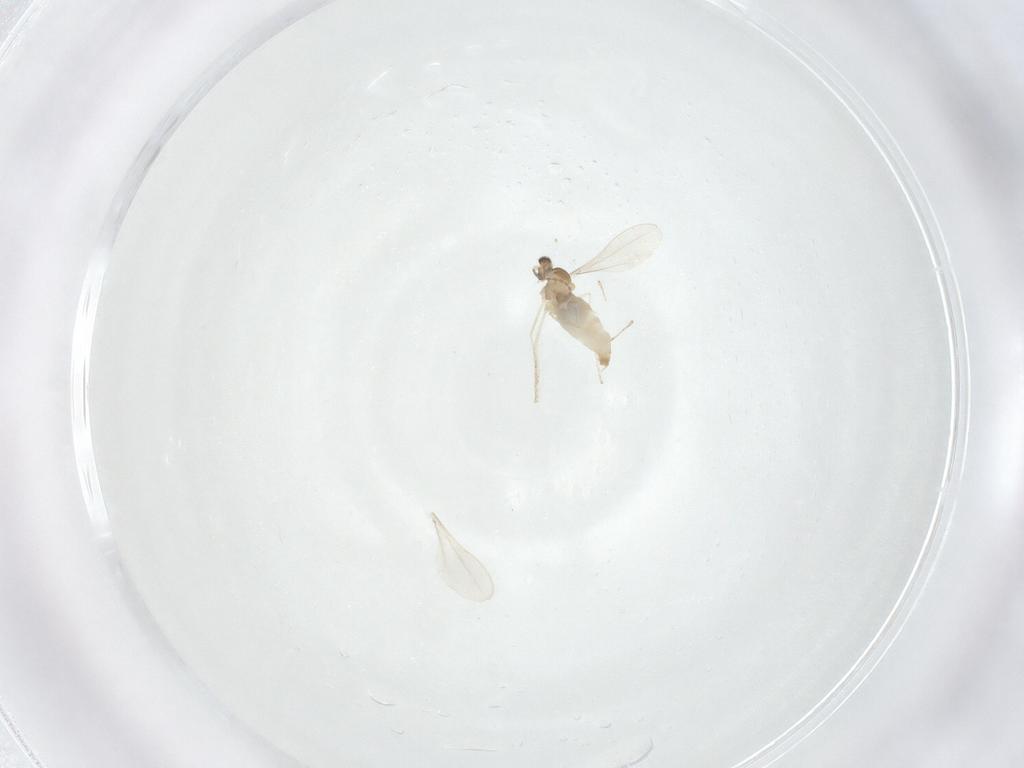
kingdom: Animalia
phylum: Arthropoda
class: Insecta
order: Diptera
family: Cecidomyiidae
